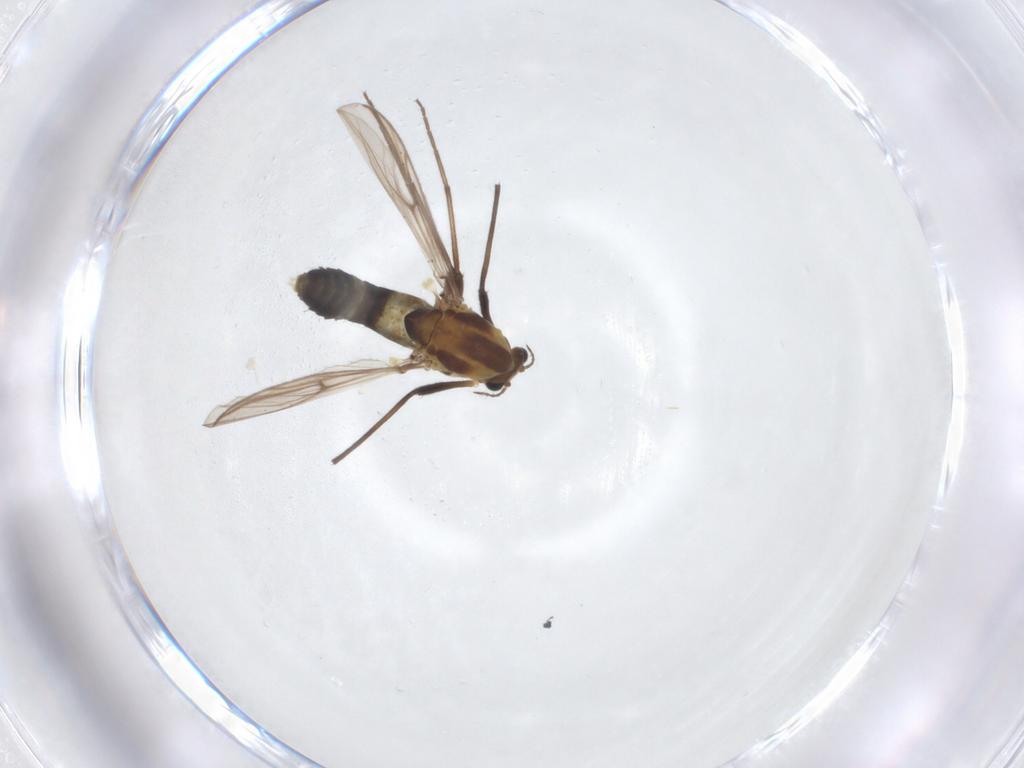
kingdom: Animalia
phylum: Arthropoda
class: Insecta
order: Diptera
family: Chironomidae
